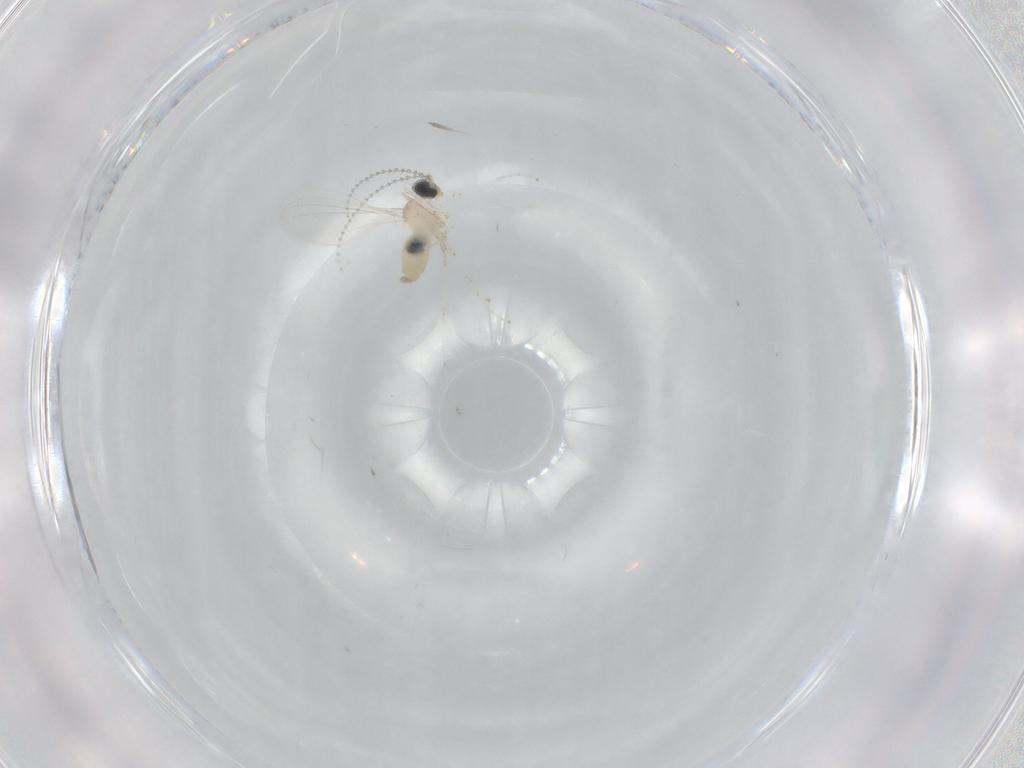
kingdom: Animalia
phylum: Arthropoda
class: Insecta
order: Diptera
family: Cecidomyiidae
